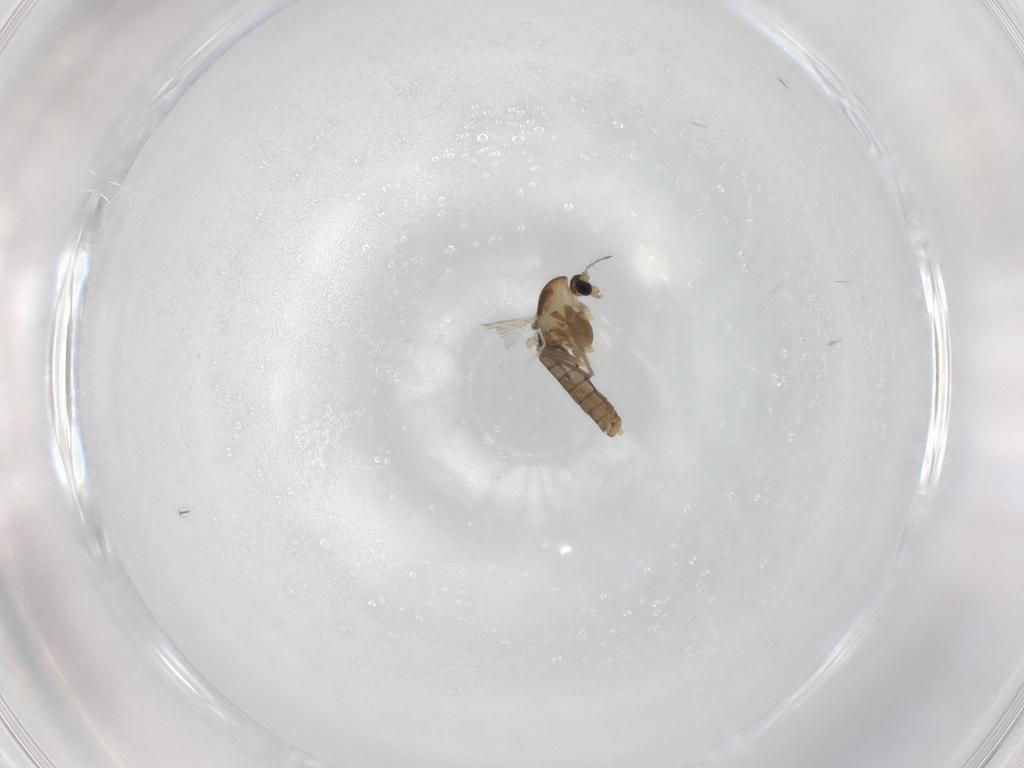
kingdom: Animalia
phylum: Arthropoda
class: Insecta
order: Diptera
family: Chironomidae
